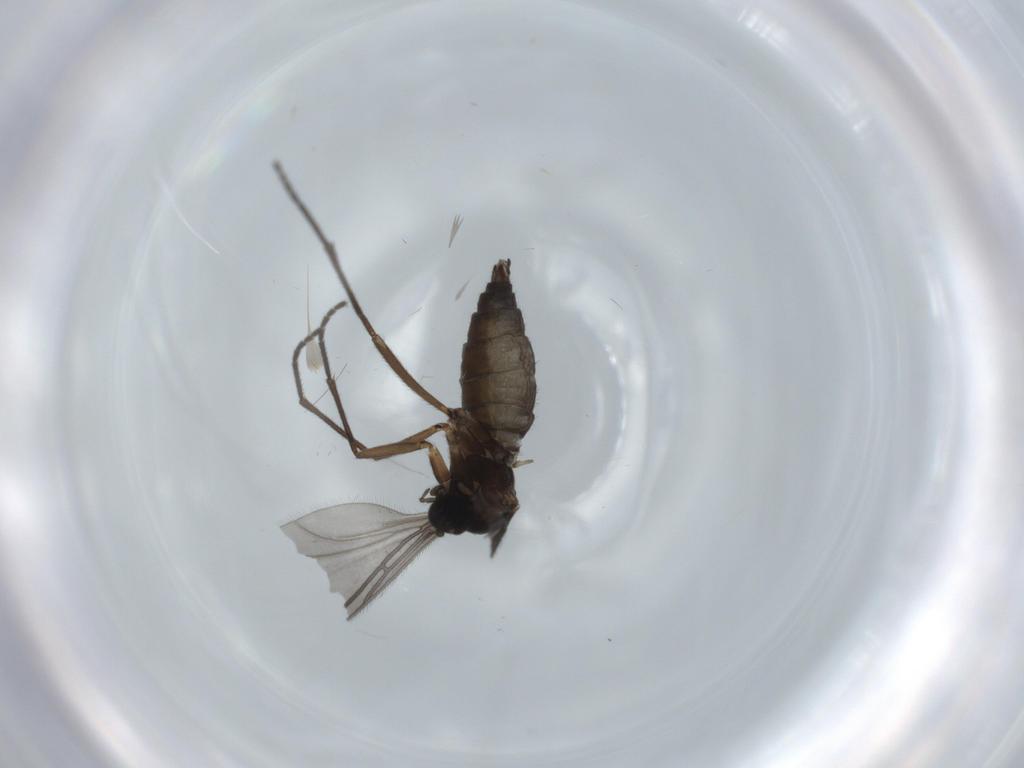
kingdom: Animalia
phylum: Arthropoda
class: Insecta
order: Diptera
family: Sciaridae
